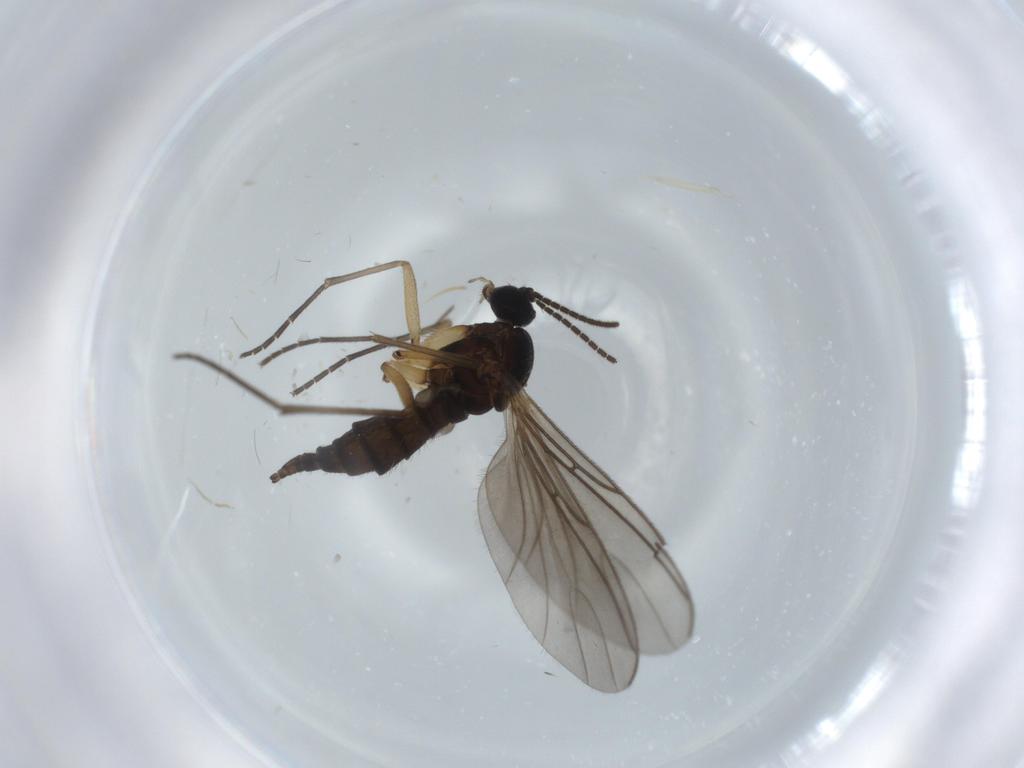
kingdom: Animalia
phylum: Arthropoda
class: Insecta
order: Diptera
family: Sciaridae
